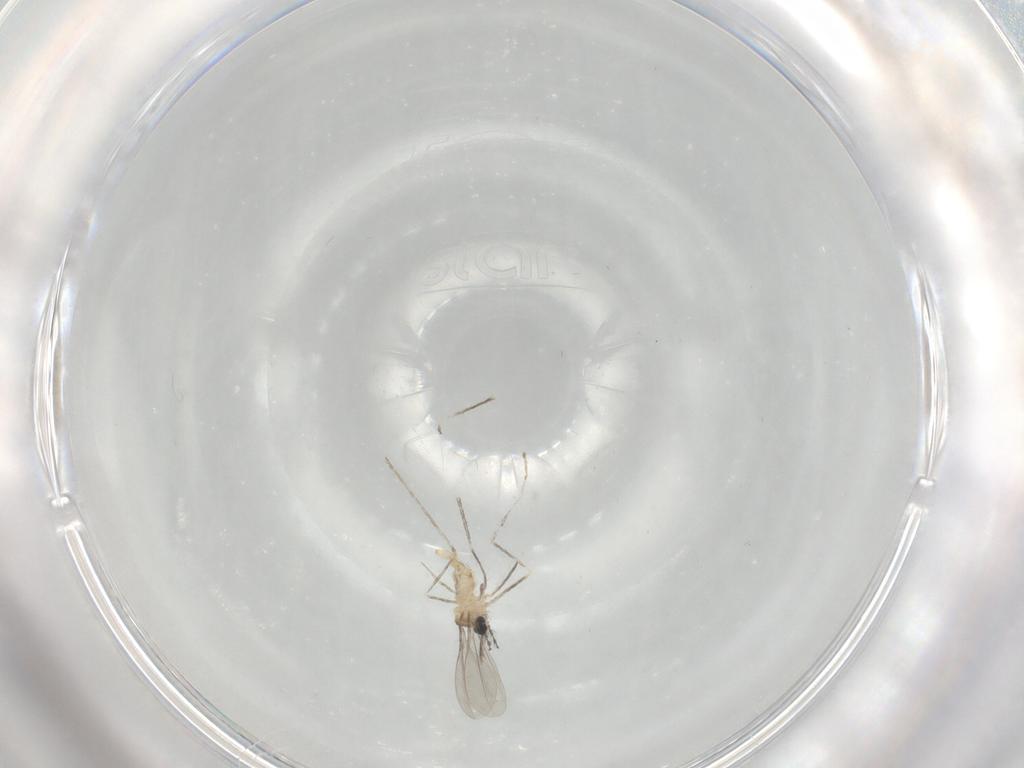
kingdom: Animalia
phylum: Arthropoda
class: Insecta
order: Diptera
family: Cecidomyiidae
